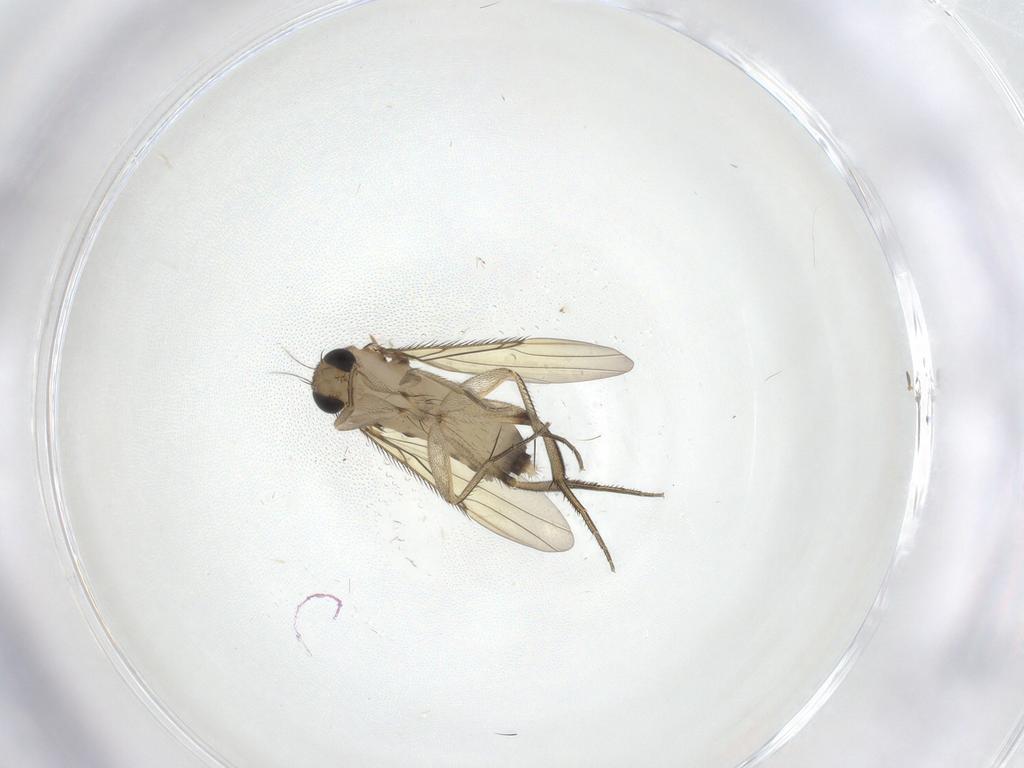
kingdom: Animalia
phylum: Arthropoda
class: Insecta
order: Diptera
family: Phoridae
